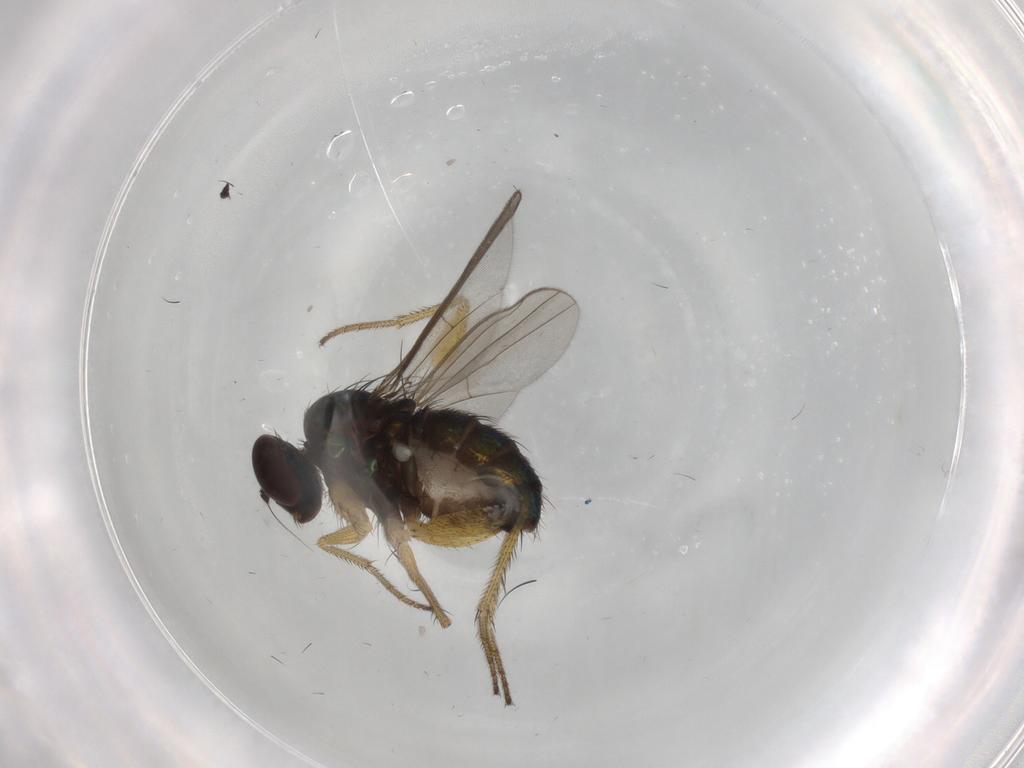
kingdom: Animalia
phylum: Arthropoda
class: Insecta
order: Diptera
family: Dolichopodidae
